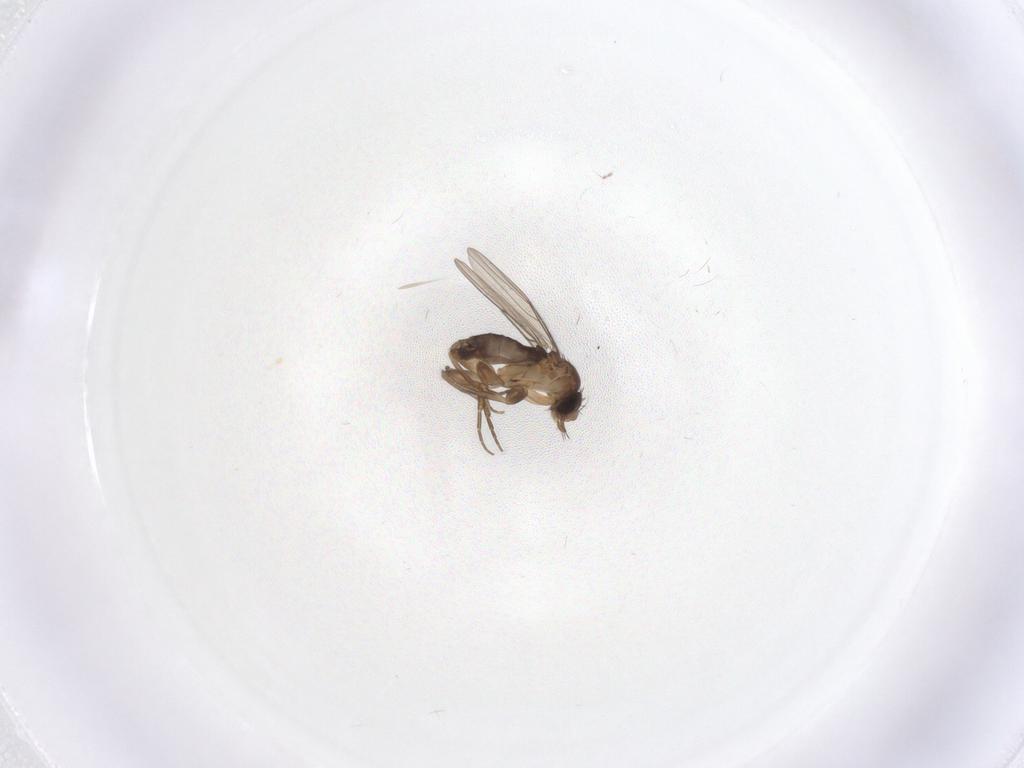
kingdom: Animalia
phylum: Arthropoda
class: Insecta
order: Diptera
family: Phoridae
